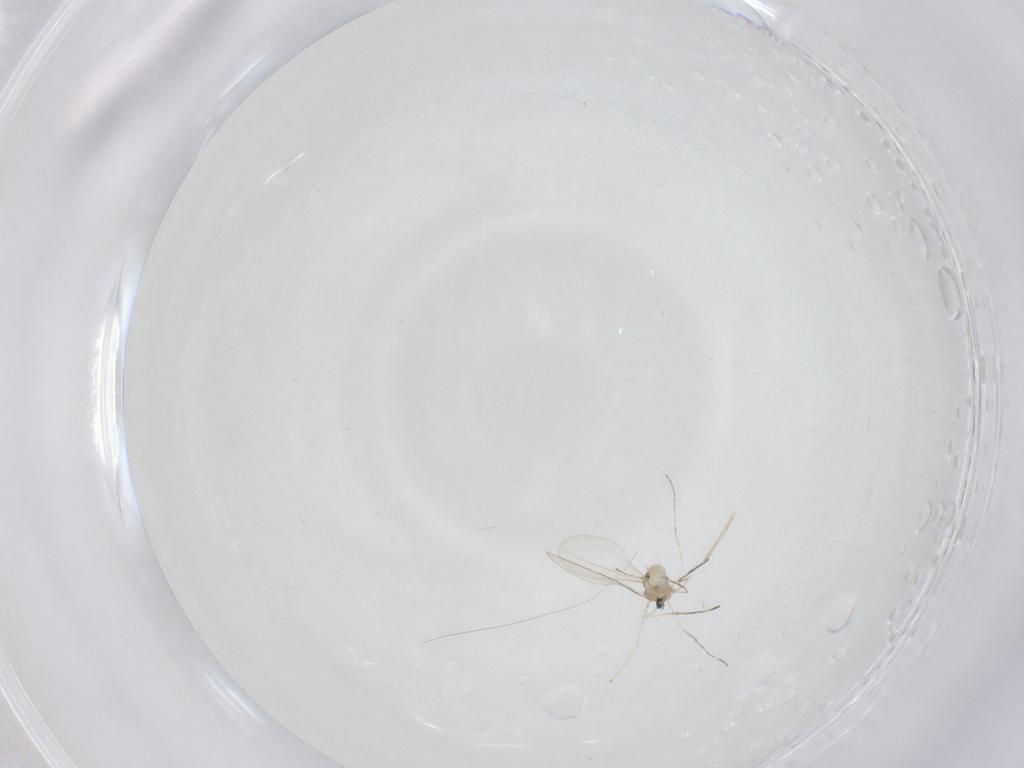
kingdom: Animalia
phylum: Arthropoda
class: Insecta
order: Diptera
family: Cecidomyiidae
